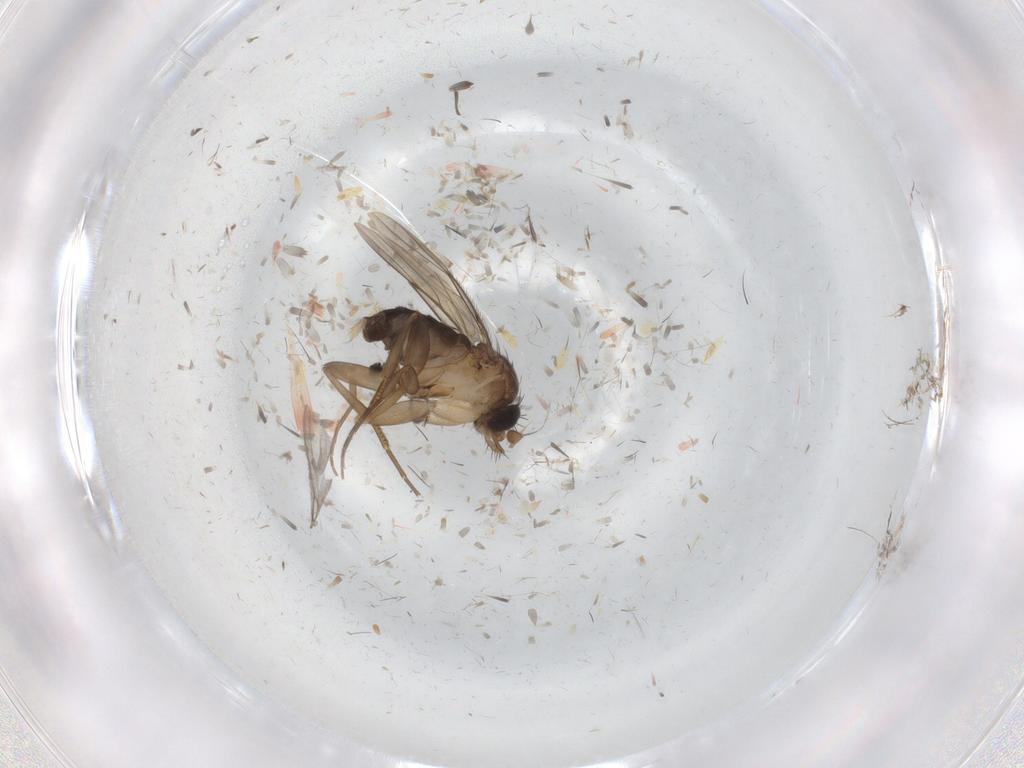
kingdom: Animalia
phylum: Arthropoda
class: Insecta
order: Diptera
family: Phoridae
